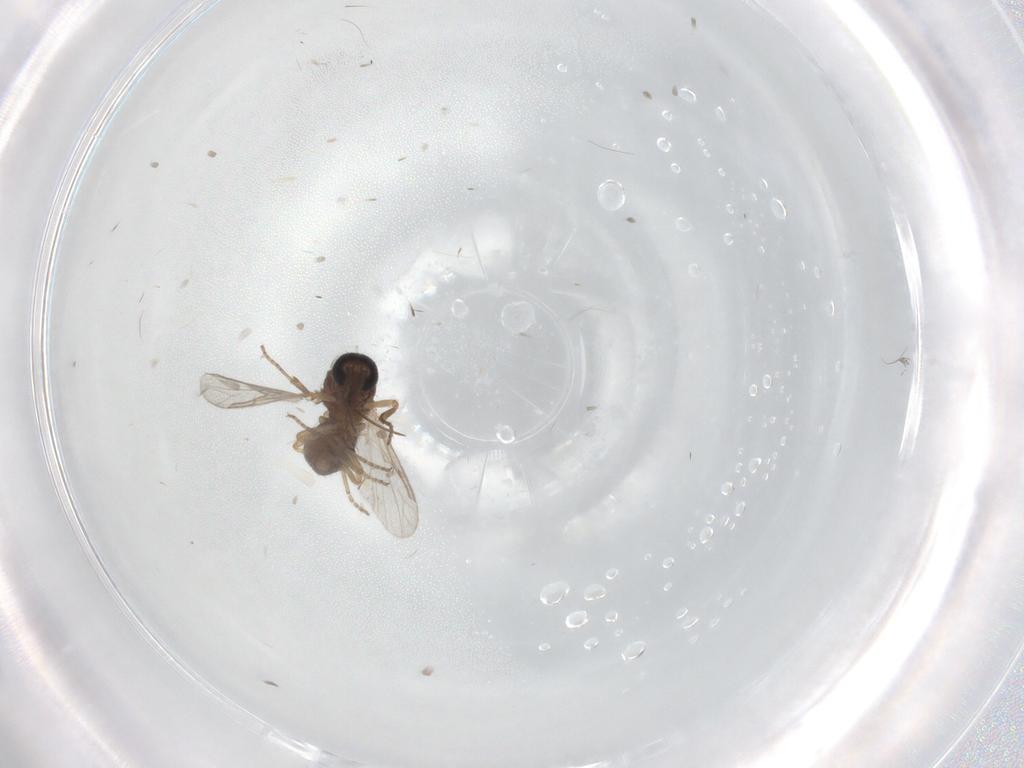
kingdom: Animalia
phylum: Arthropoda
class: Insecta
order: Diptera
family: Ceratopogonidae
